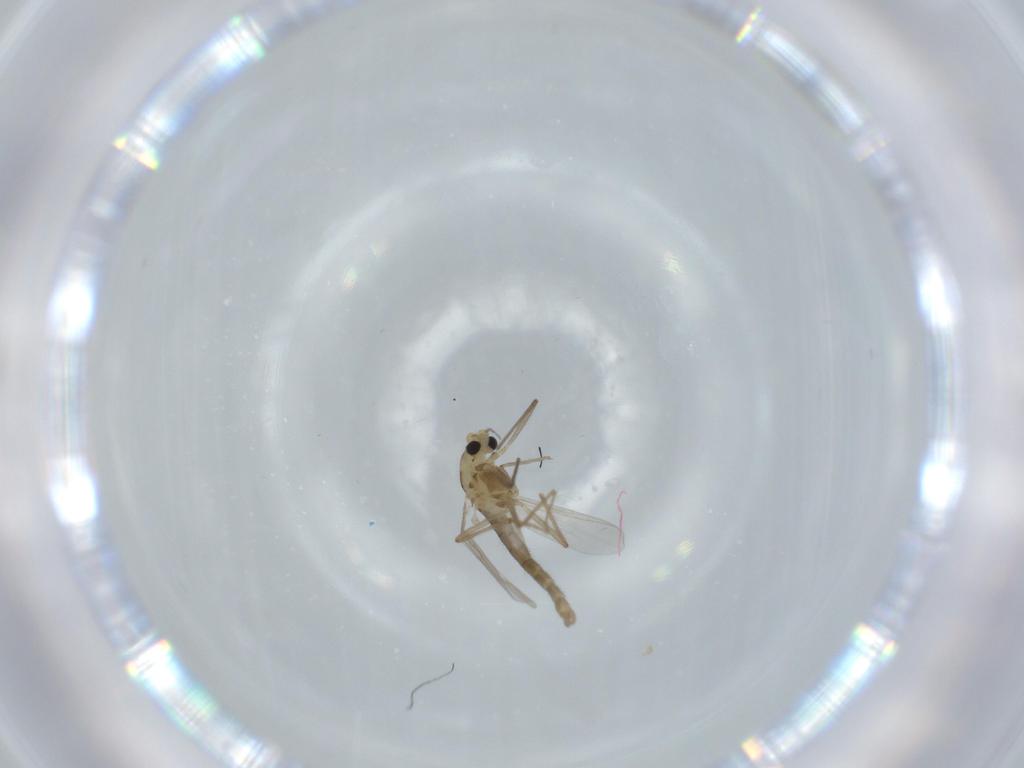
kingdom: Animalia
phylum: Arthropoda
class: Insecta
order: Diptera
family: Chironomidae
